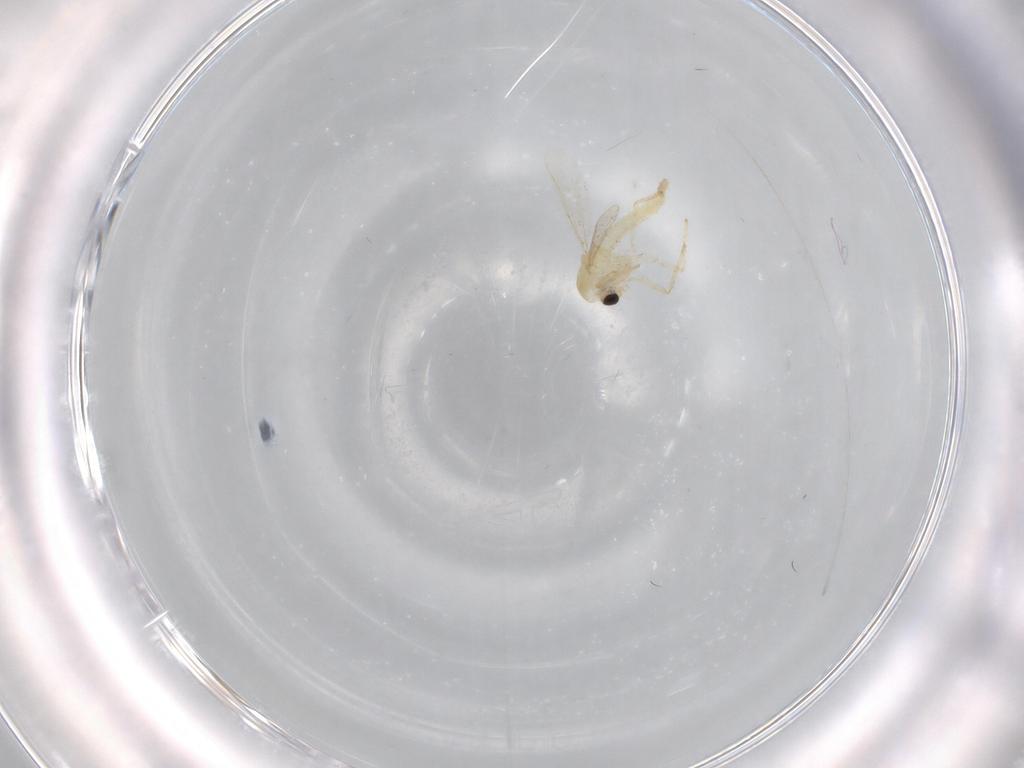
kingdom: Animalia
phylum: Arthropoda
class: Insecta
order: Diptera
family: Chironomidae
